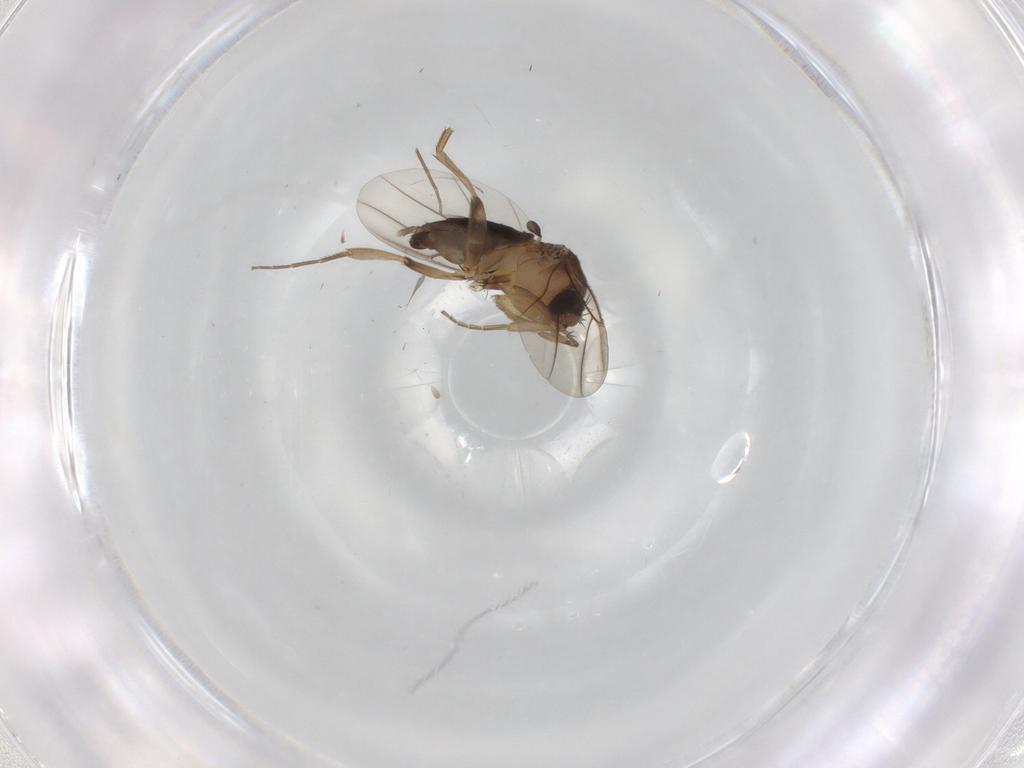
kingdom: Animalia
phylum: Arthropoda
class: Insecta
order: Diptera
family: Phoridae
